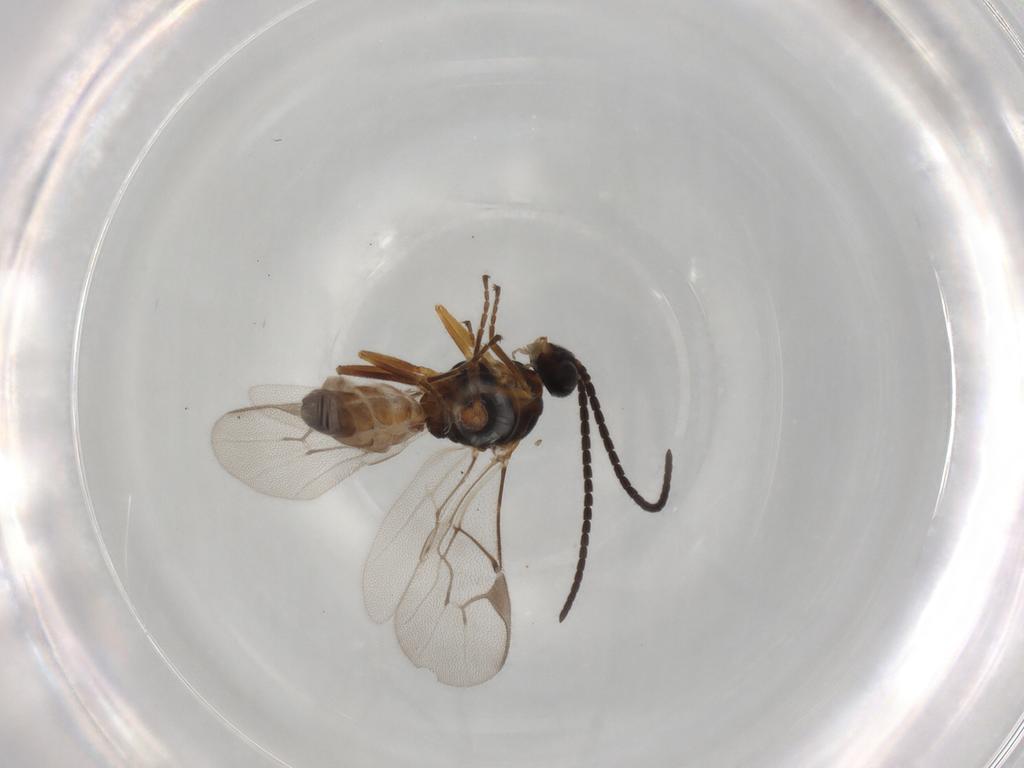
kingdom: Animalia
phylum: Arthropoda
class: Insecta
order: Hymenoptera
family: Braconidae
